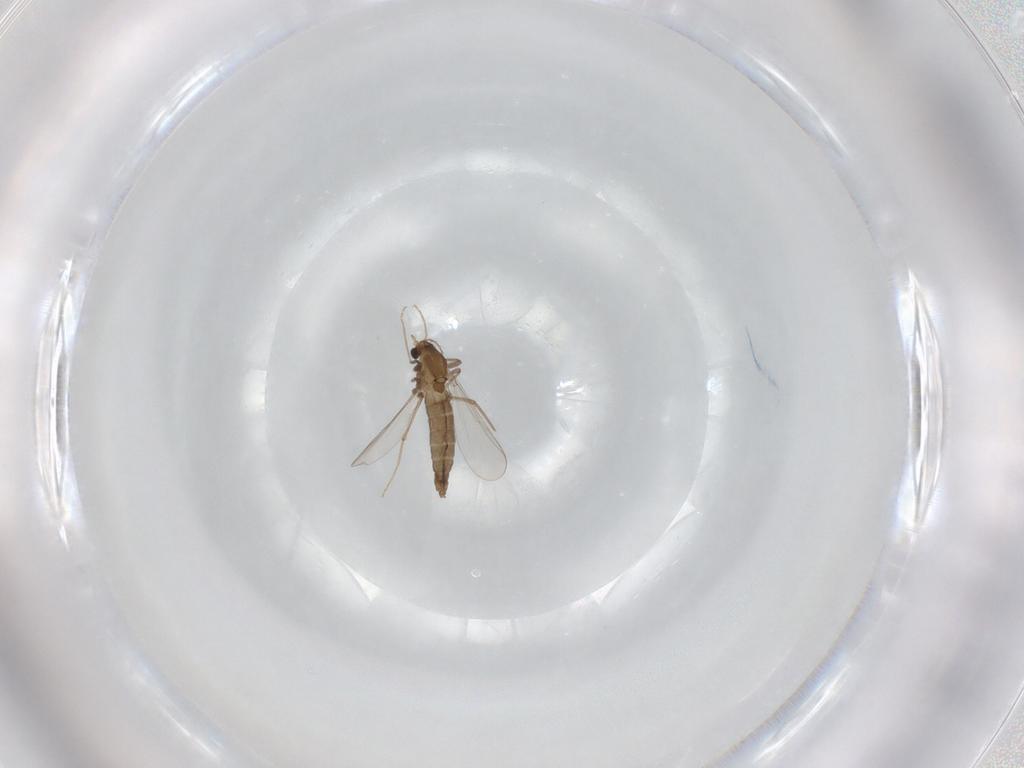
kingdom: Animalia
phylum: Arthropoda
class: Insecta
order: Diptera
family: Chironomidae
